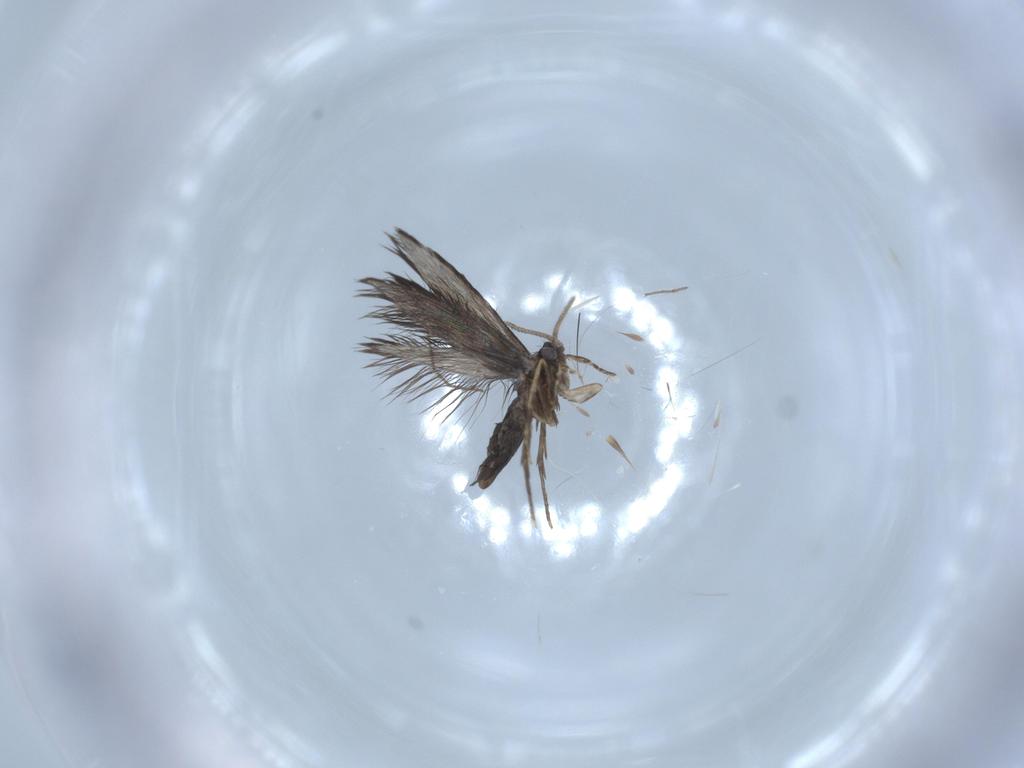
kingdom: Animalia
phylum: Arthropoda
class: Insecta
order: Trichoptera
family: Hydroptilidae
